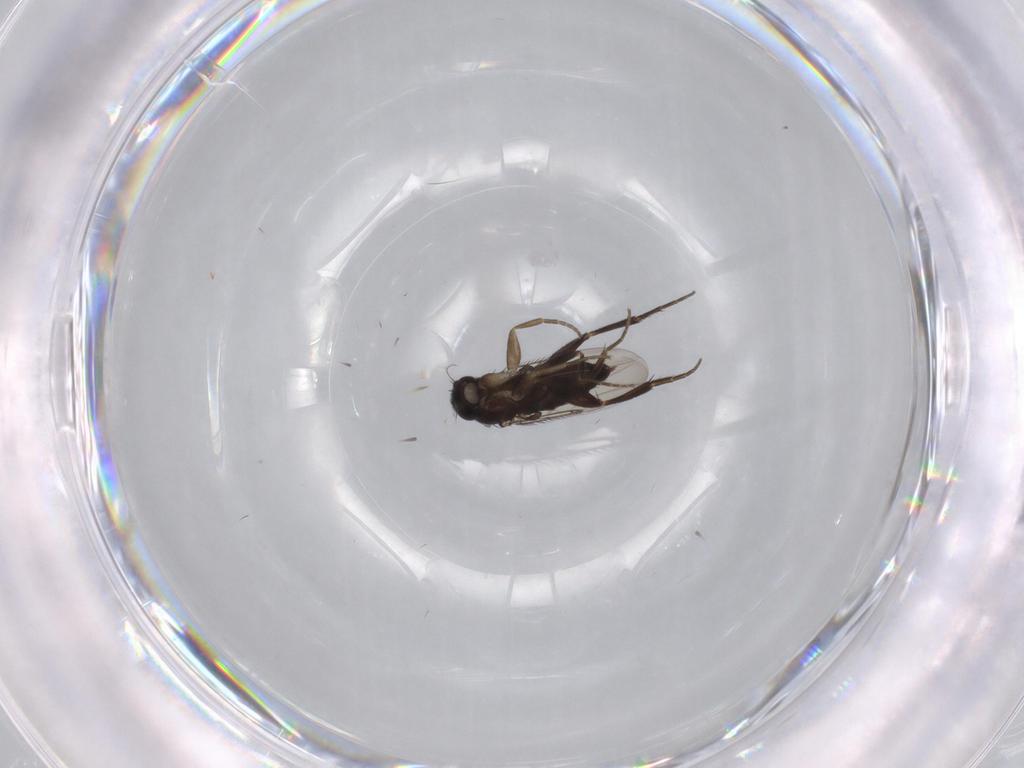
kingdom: Animalia
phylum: Arthropoda
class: Insecta
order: Diptera
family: Phoridae
